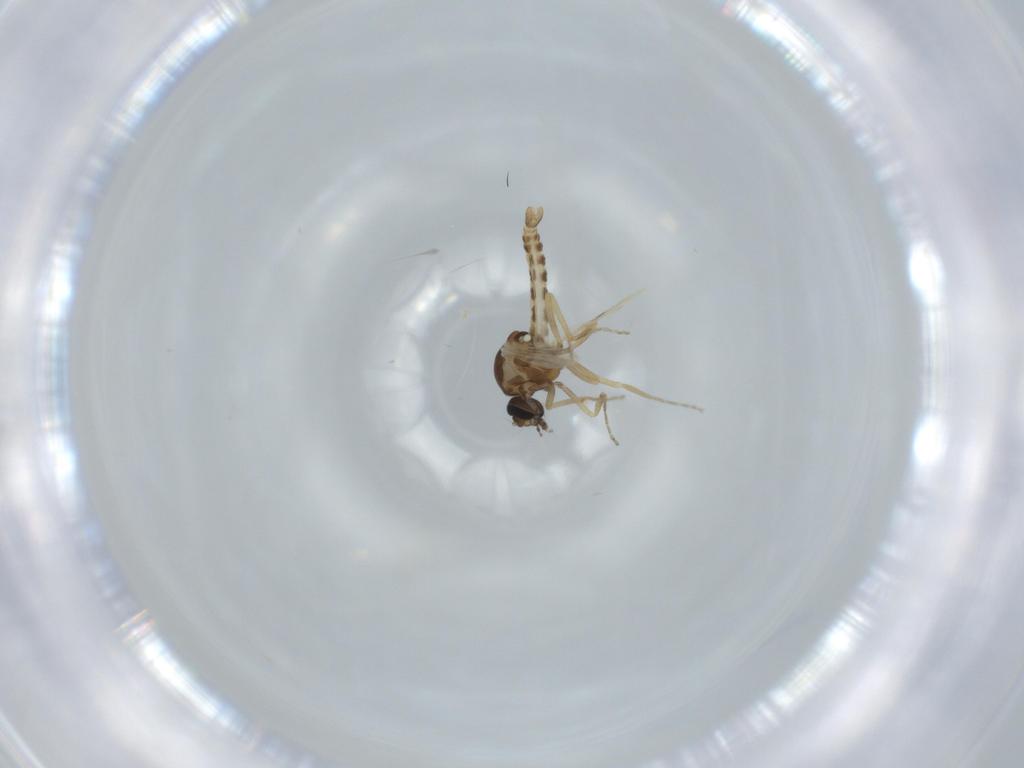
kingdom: Animalia
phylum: Arthropoda
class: Insecta
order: Diptera
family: Ceratopogonidae
